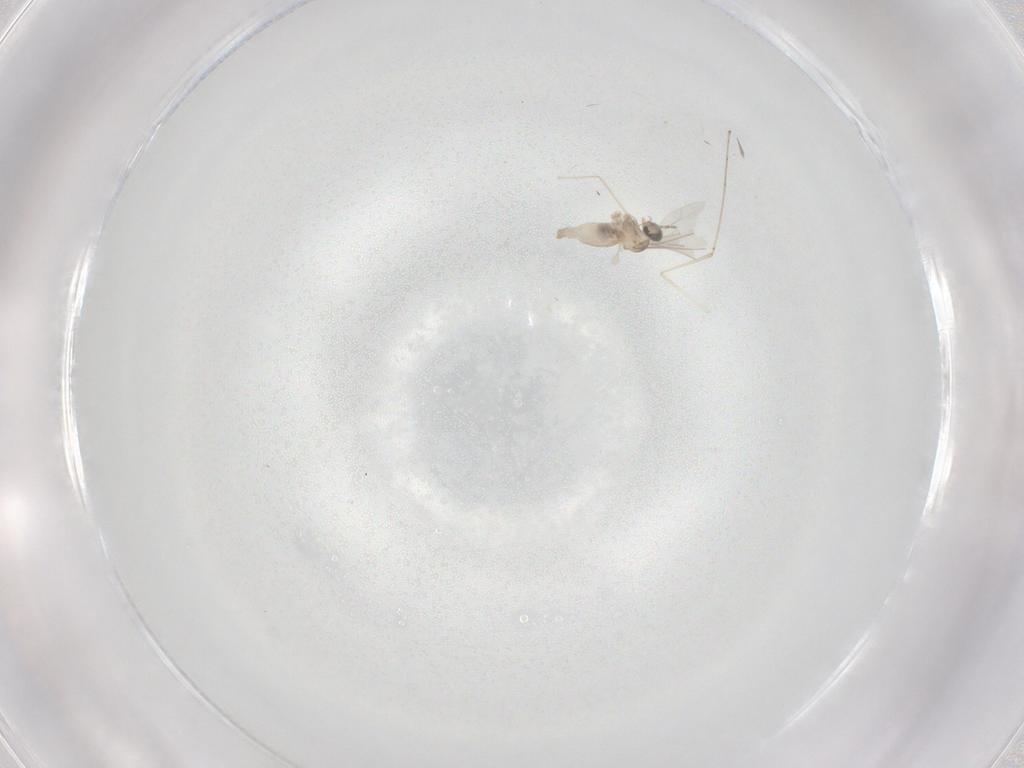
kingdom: Animalia
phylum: Arthropoda
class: Insecta
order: Diptera
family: Cecidomyiidae
